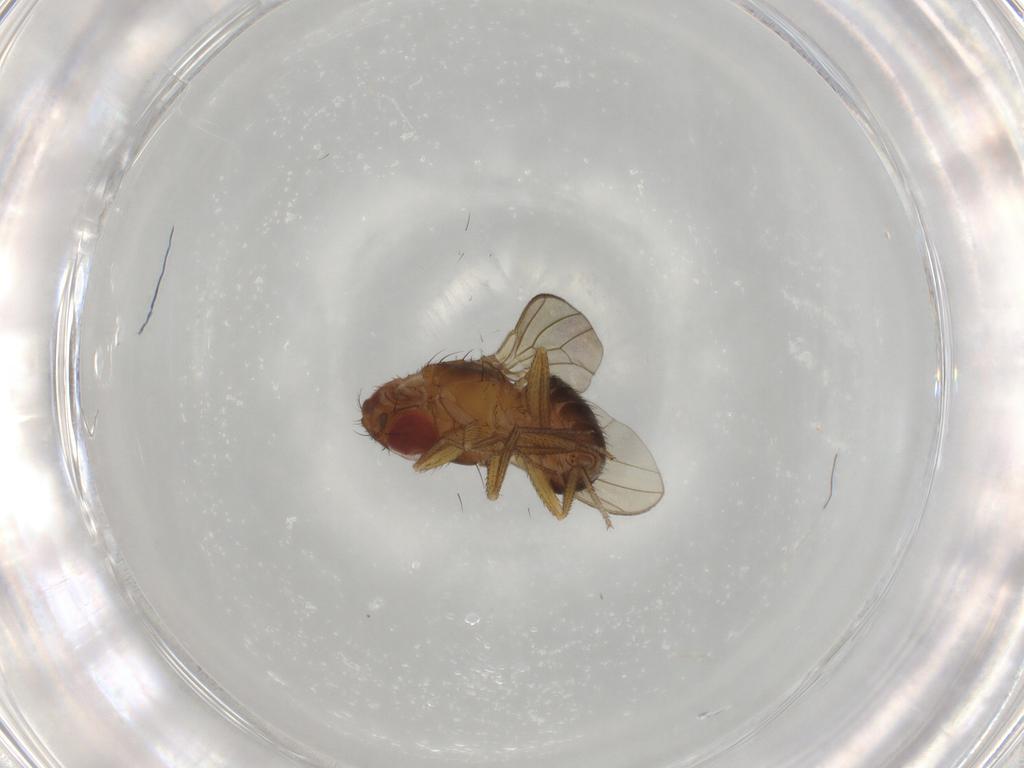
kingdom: Animalia
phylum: Arthropoda
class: Insecta
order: Diptera
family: Drosophilidae
